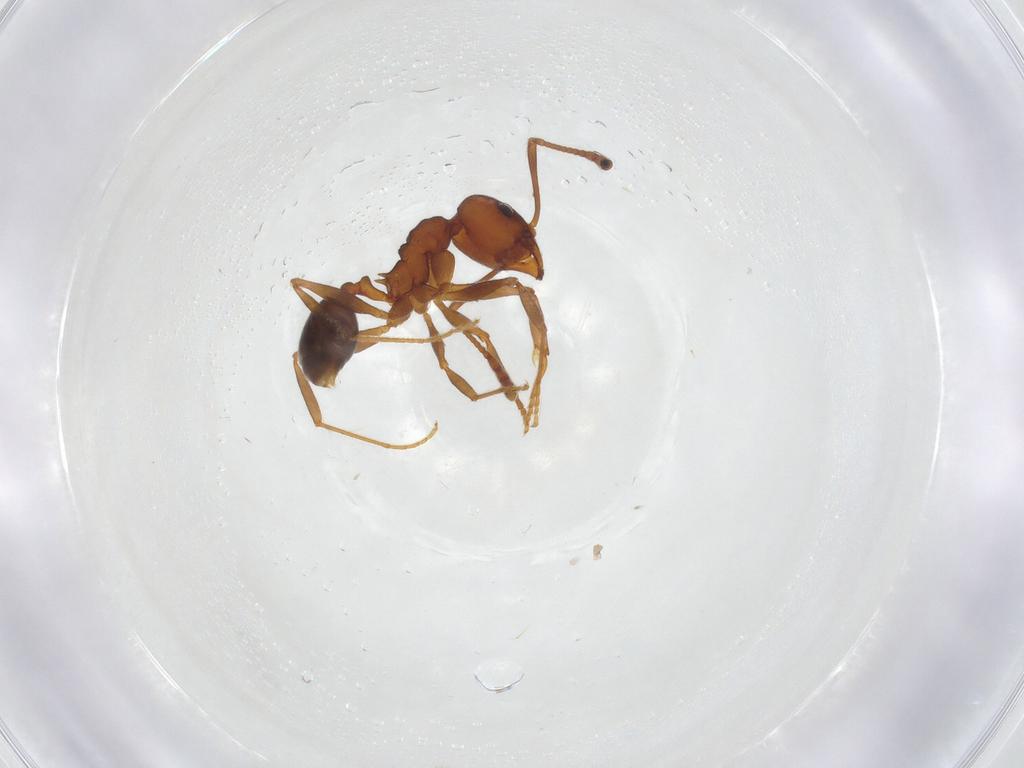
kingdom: Animalia
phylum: Arthropoda
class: Insecta
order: Hymenoptera
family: Formicidae
